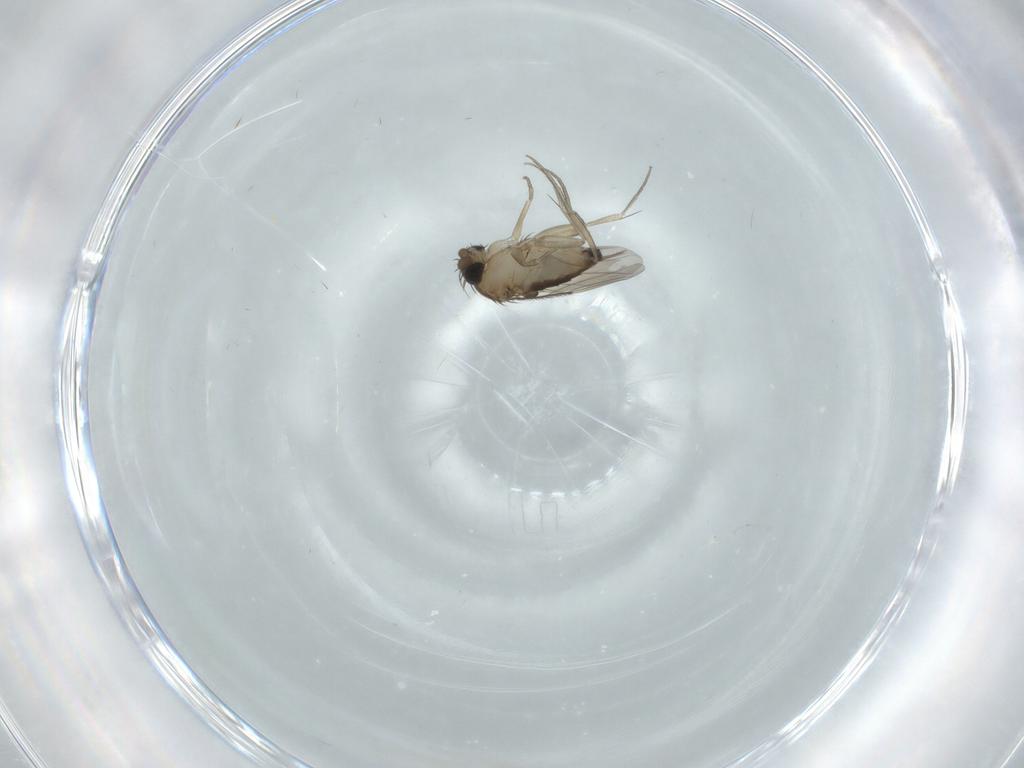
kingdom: Animalia
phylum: Arthropoda
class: Insecta
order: Diptera
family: Phoridae
